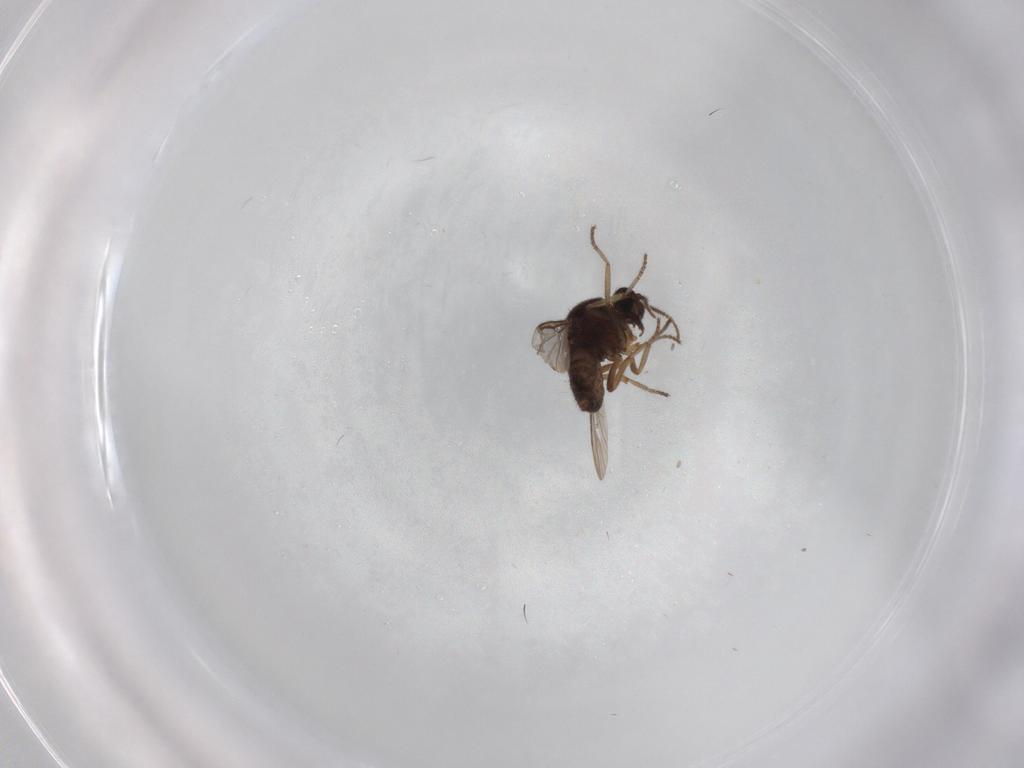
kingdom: Animalia
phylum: Arthropoda
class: Insecta
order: Diptera
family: Ceratopogonidae
